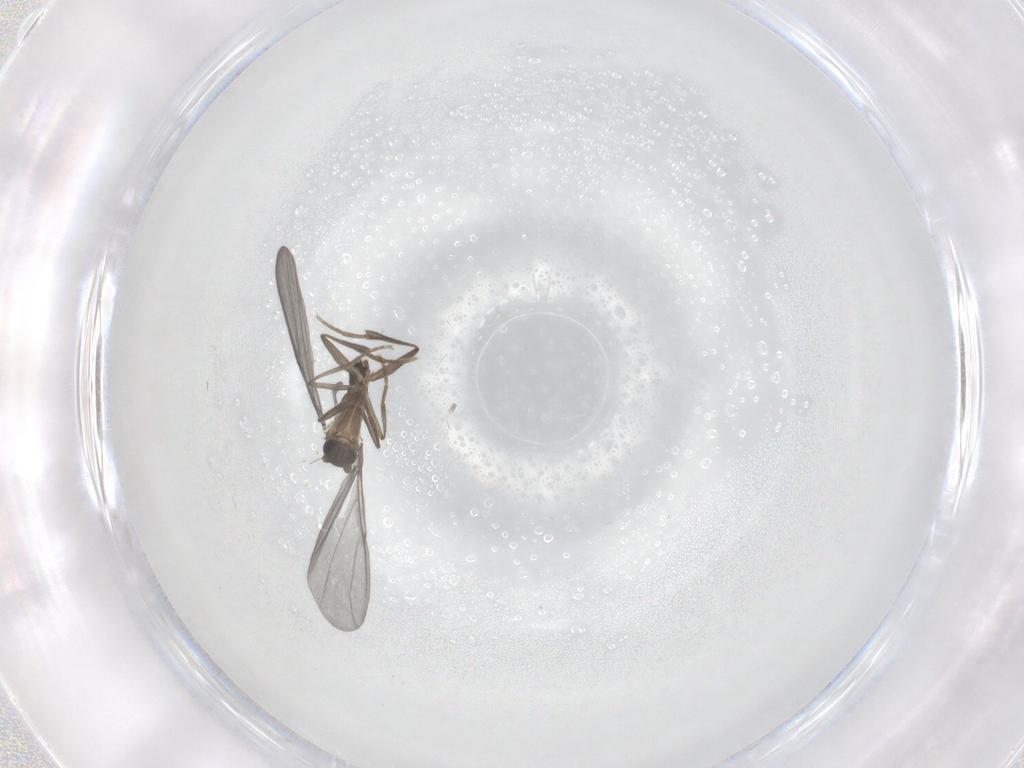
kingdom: Animalia
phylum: Arthropoda
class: Insecta
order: Diptera
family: Phoridae
